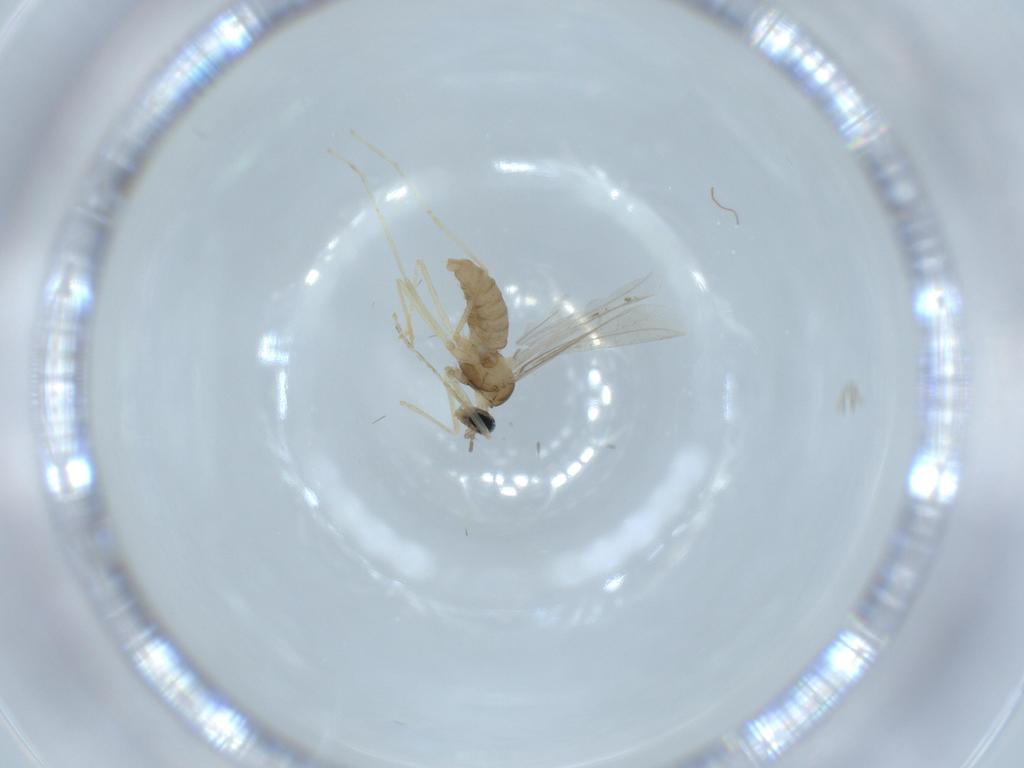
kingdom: Animalia
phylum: Arthropoda
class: Insecta
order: Diptera
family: Cecidomyiidae
